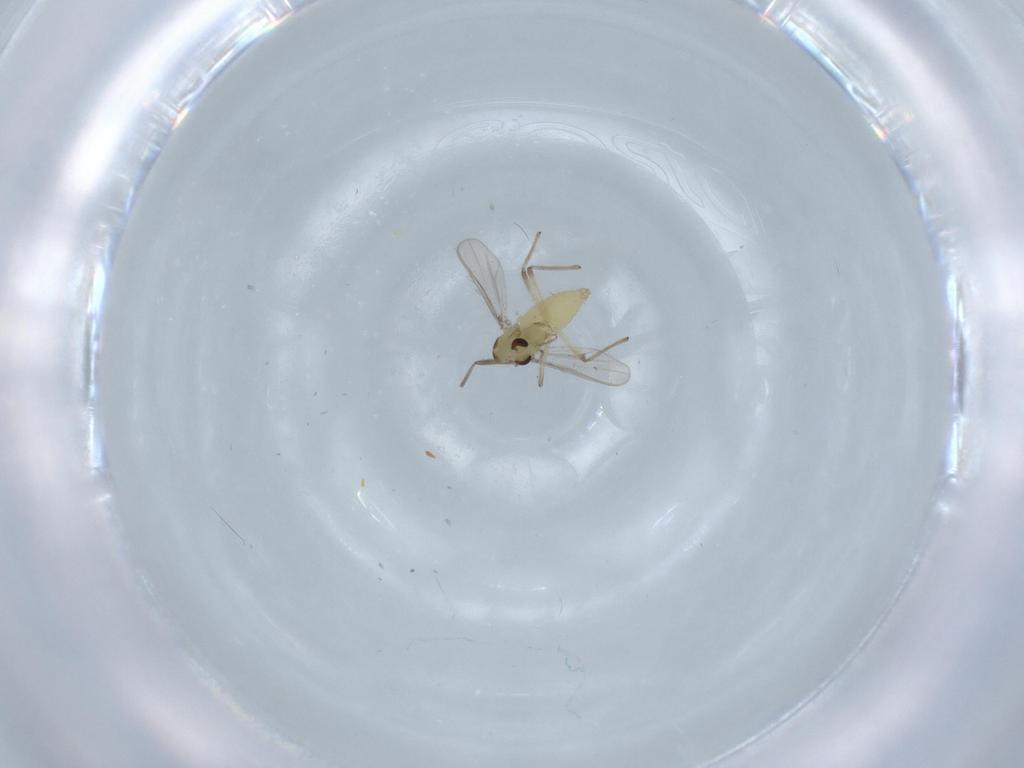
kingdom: Animalia
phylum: Arthropoda
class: Insecta
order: Diptera
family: Chironomidae
